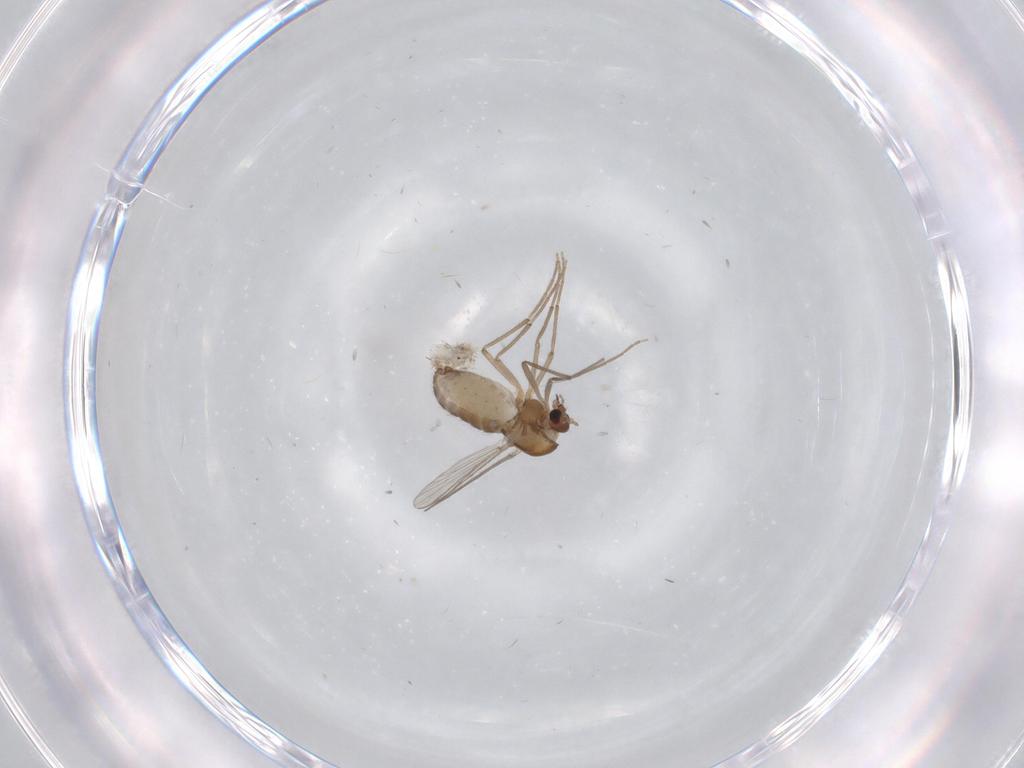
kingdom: Animalia
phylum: Arthropoda
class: Insecta
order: Diptera
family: Chironomidae
